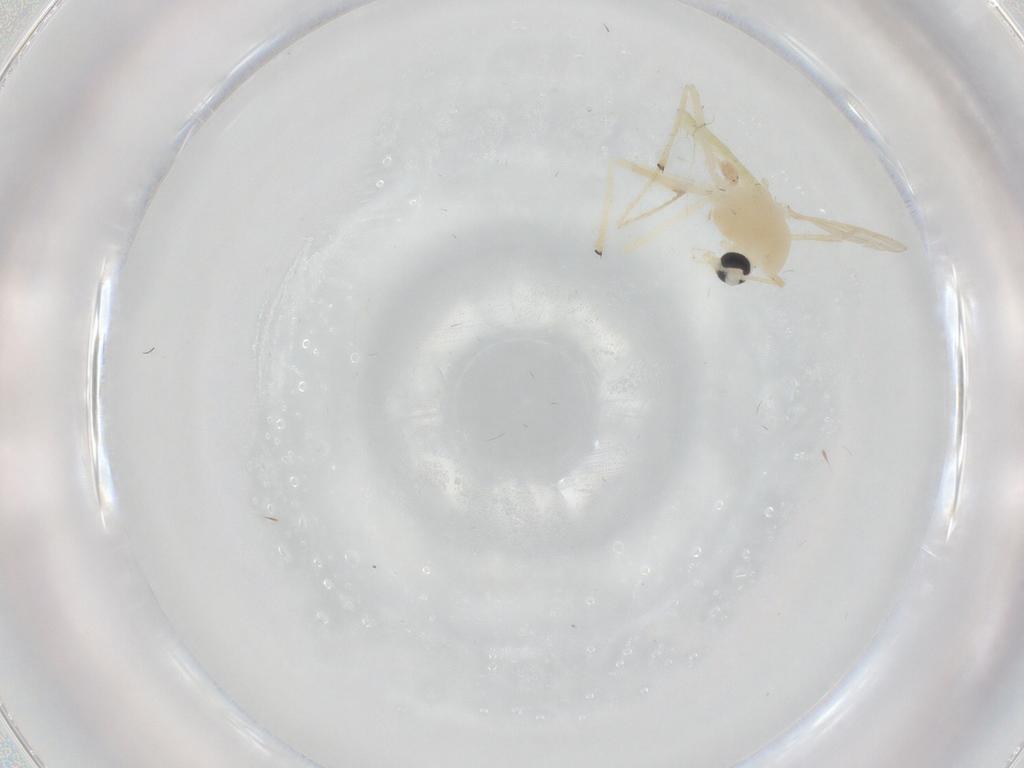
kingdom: Animalia
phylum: Arthropoda
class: Insecta
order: Diptera
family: Chironomidae
